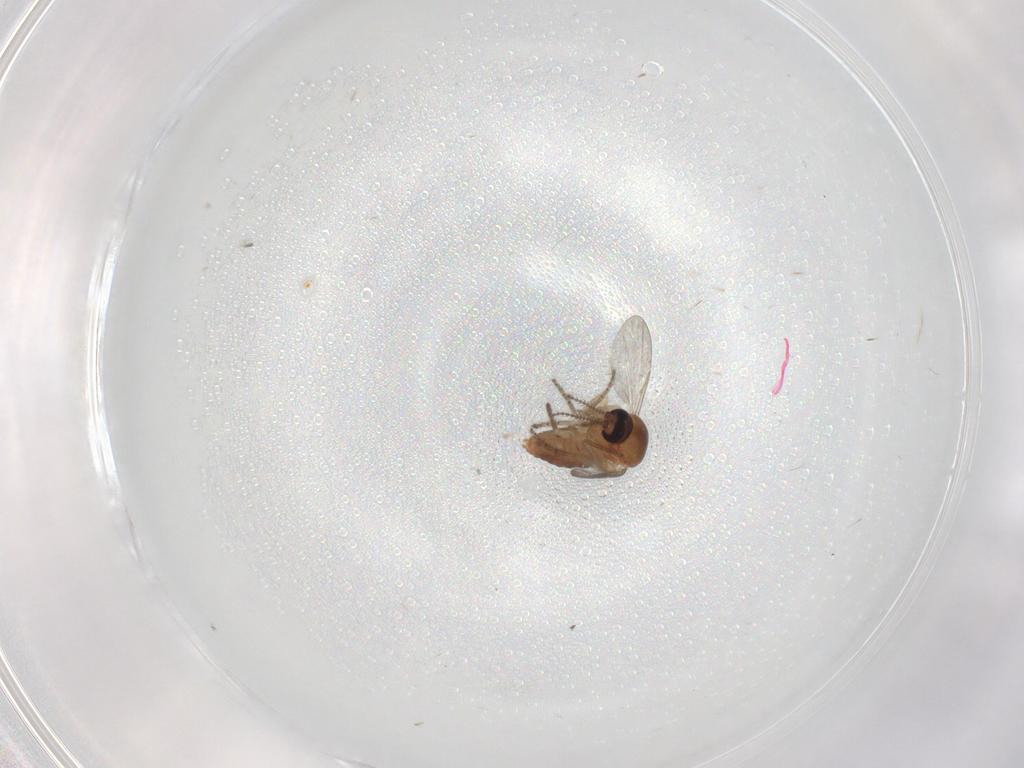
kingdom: Animalia
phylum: Arthropoda
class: Insecta
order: Diptera
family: Ceratopogonidae
